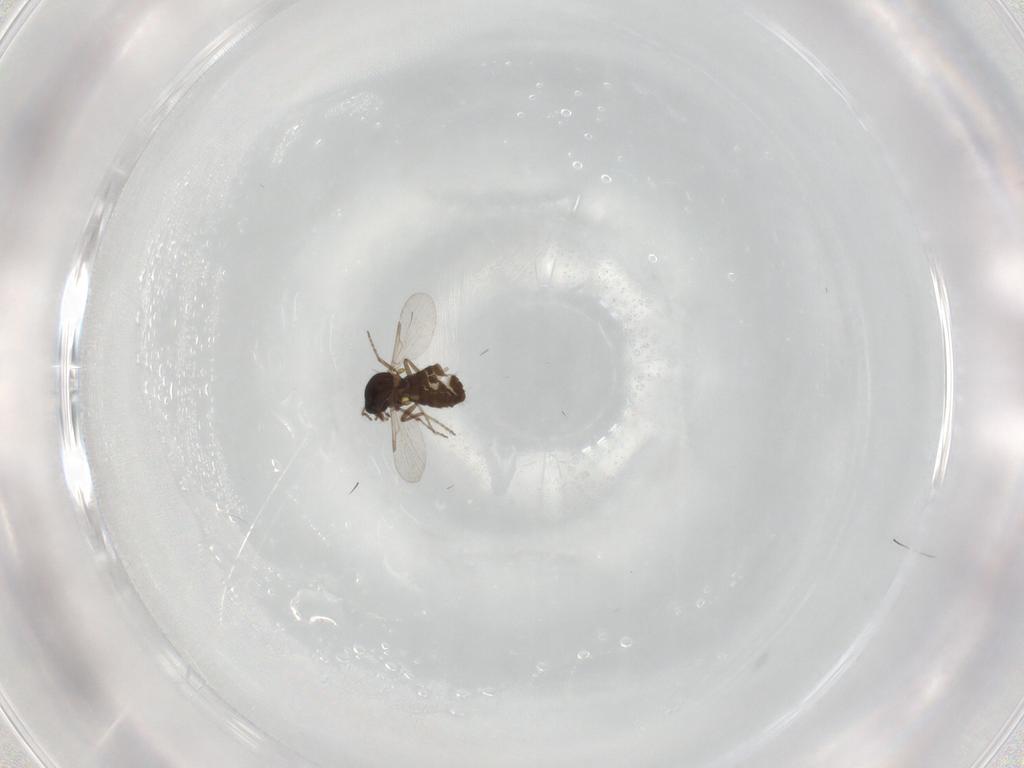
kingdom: Animalia
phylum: Arthropoda
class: Insecta
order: Diptera
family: Ceratopogonidae
